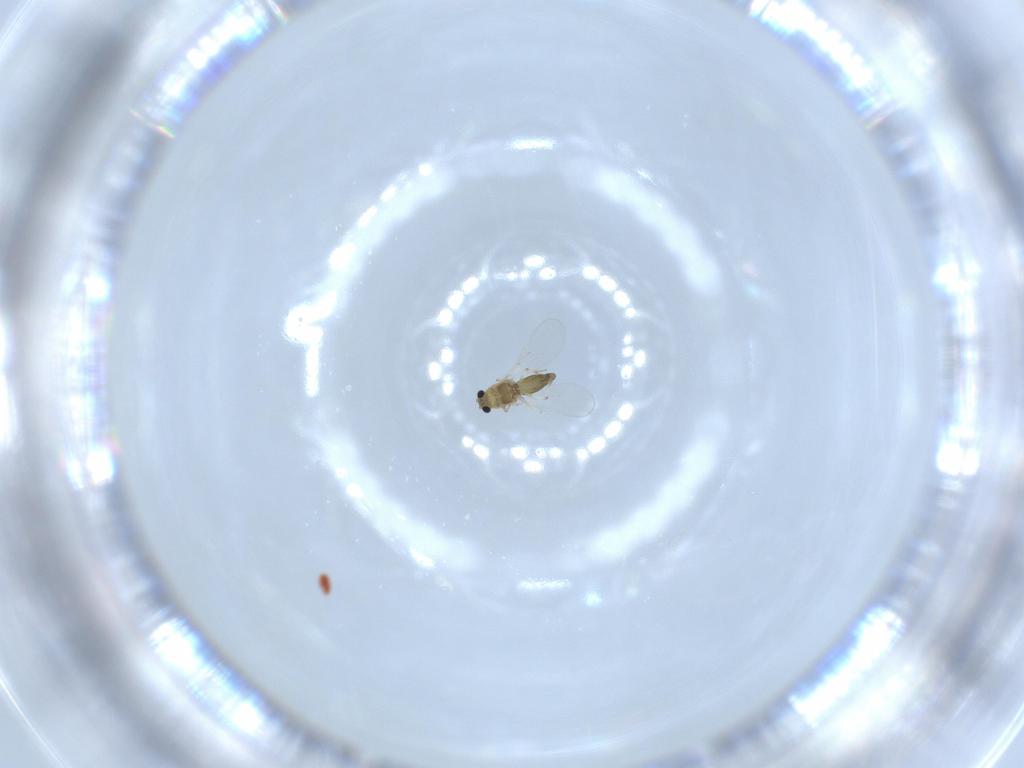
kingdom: Animalia
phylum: Arthropoda
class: Insecta
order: Diptera
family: Chironomidae
